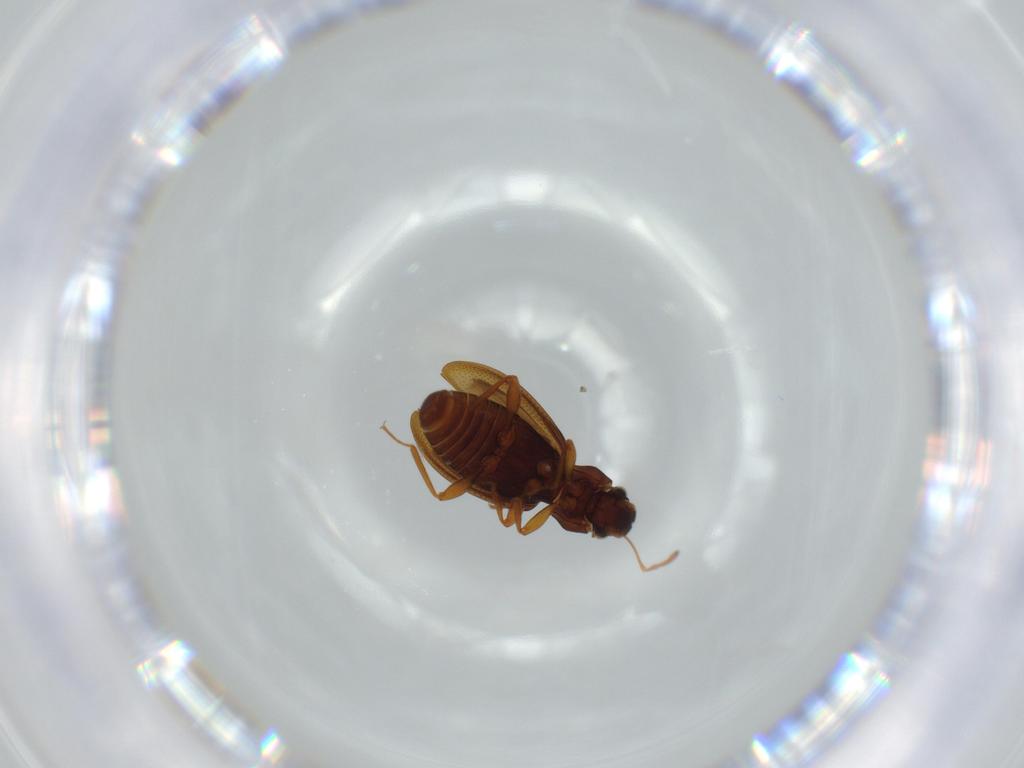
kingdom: Animalia
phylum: Arthropoda
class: Insecta
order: Coleoptera
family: Hydraenidae
